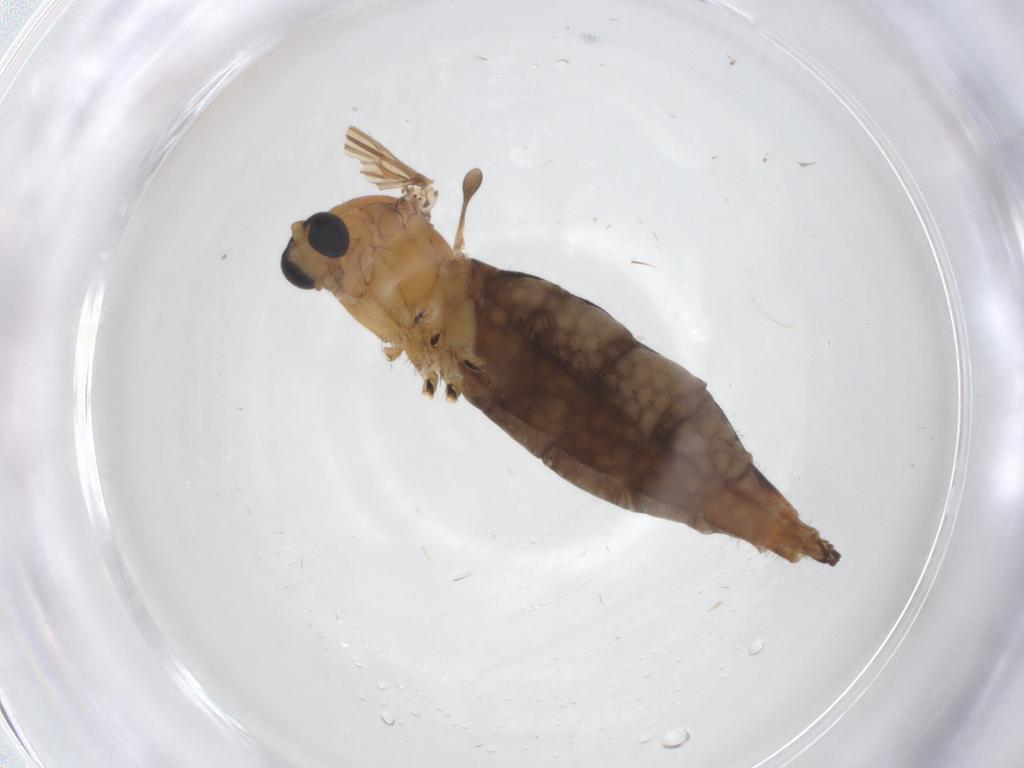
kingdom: Animalia
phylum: Arthropoda
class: Insecta
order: Diptera
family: Sciaridae
